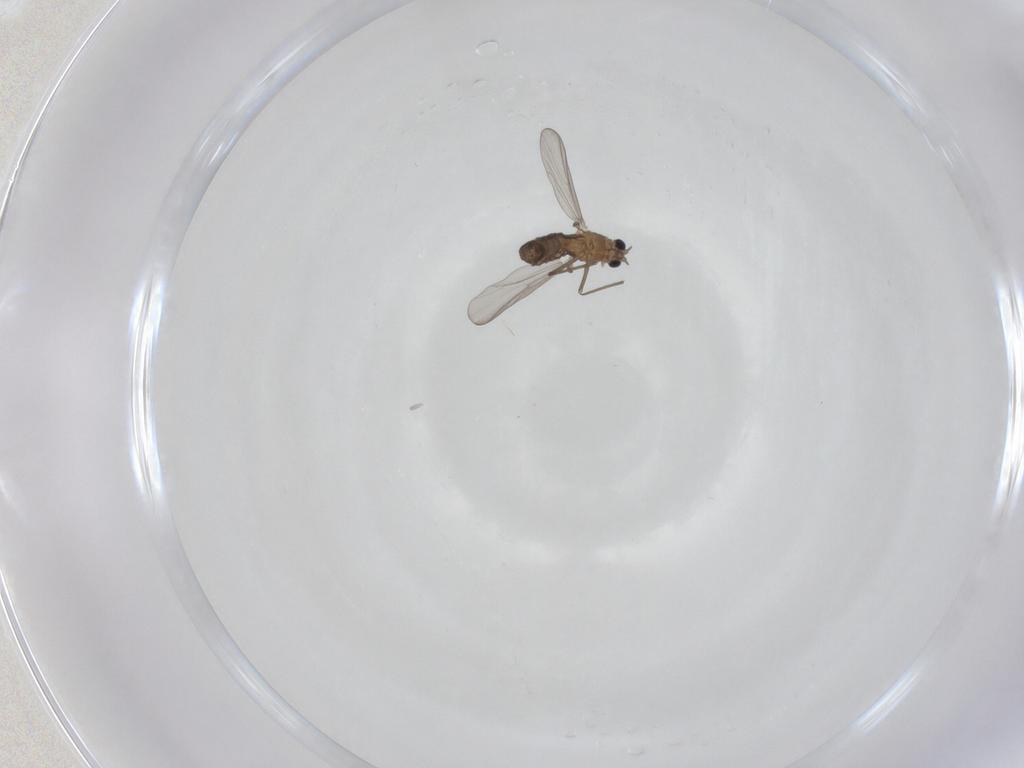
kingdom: Animalia
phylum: Arthropoda
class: Insecta
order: Diptera
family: Chironomidae
